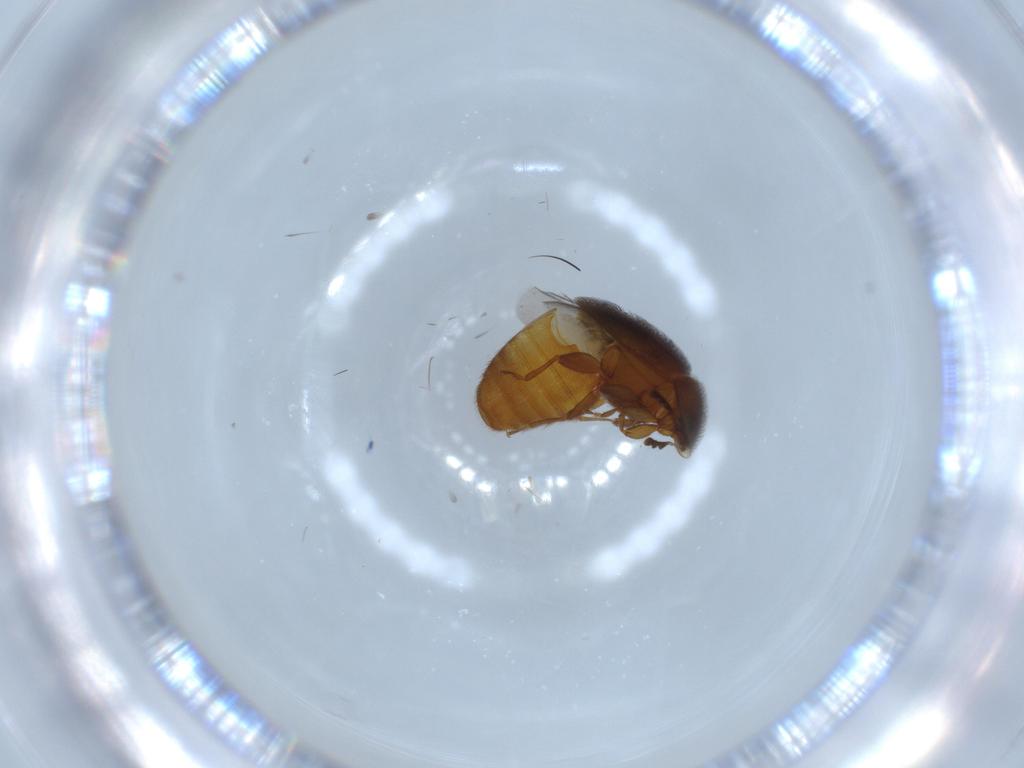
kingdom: Animalia
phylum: Arthropoda
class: Insecta
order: Coleoptera
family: Corylophidae
